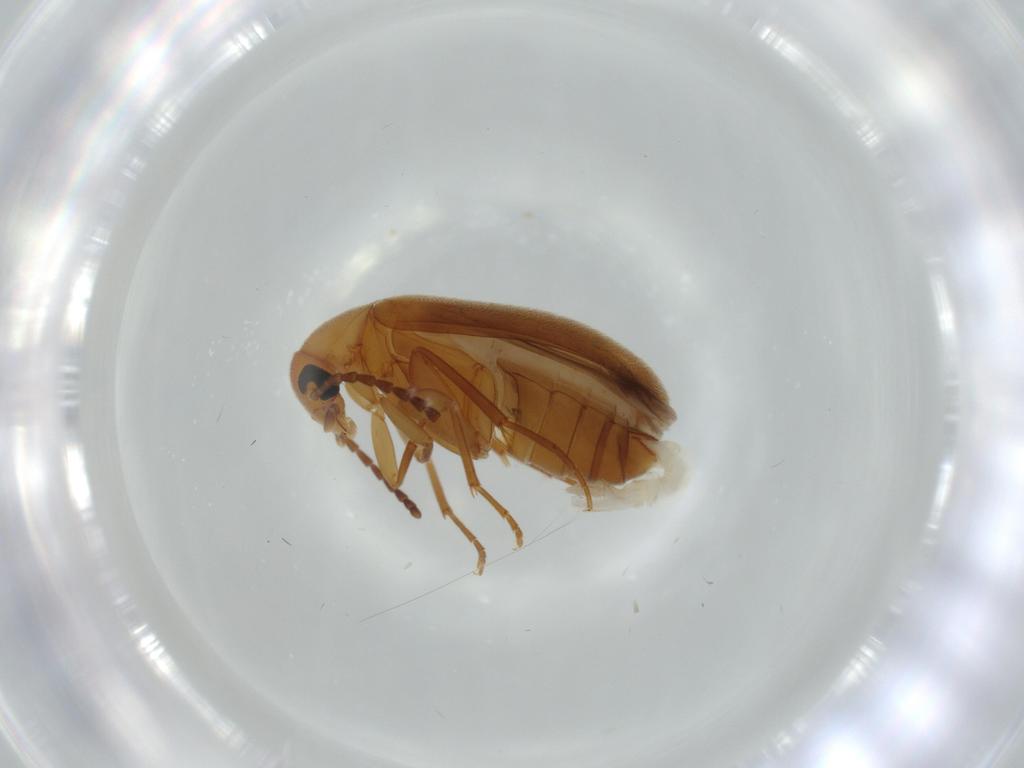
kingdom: Animalia
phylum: Arthropoda
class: Insecta
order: Coleoptera
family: Scraptiidae
